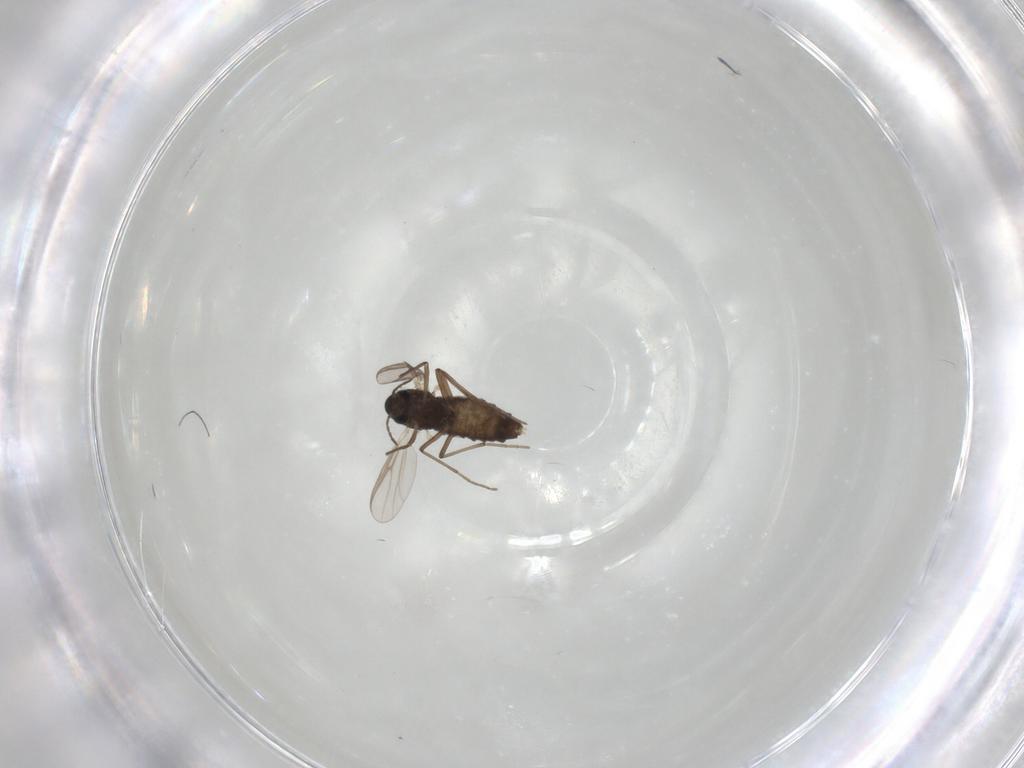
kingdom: Animalia
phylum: Arthropoda
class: Insecta
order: Diptera
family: Chironomidae
